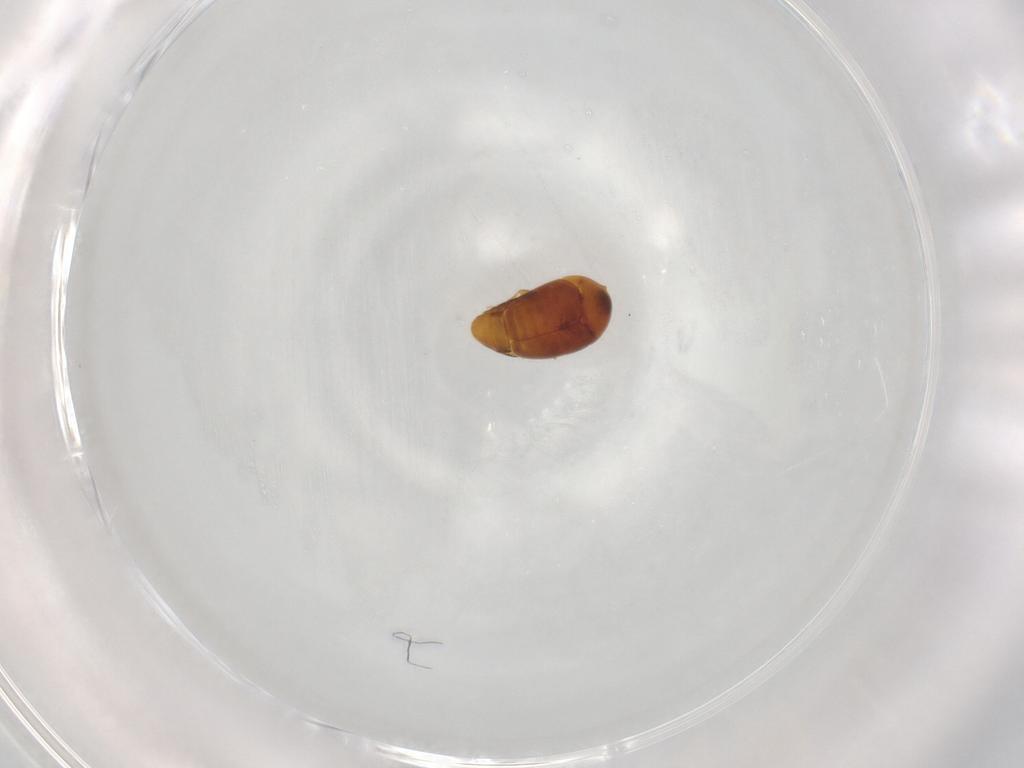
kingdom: Animalia
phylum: Arthropoda
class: Insecta
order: Coleoptera
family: Corylophidae
